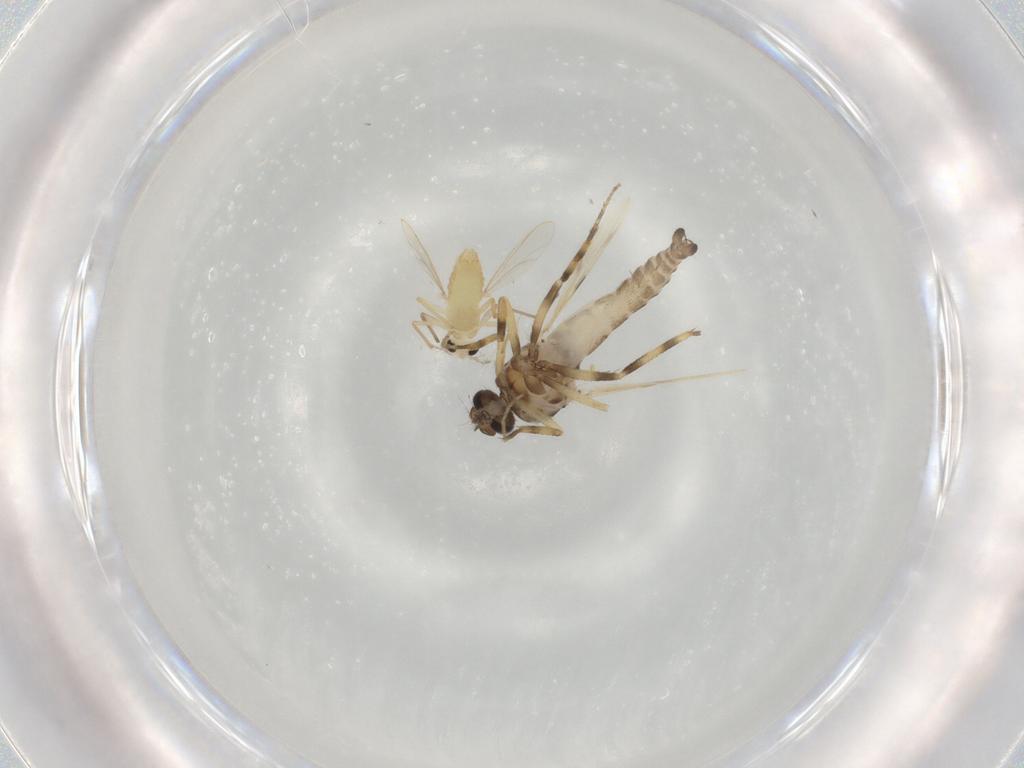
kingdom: Animalia
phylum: Arthropoda
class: Insecta
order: Diptera
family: Ceratopogonidae
